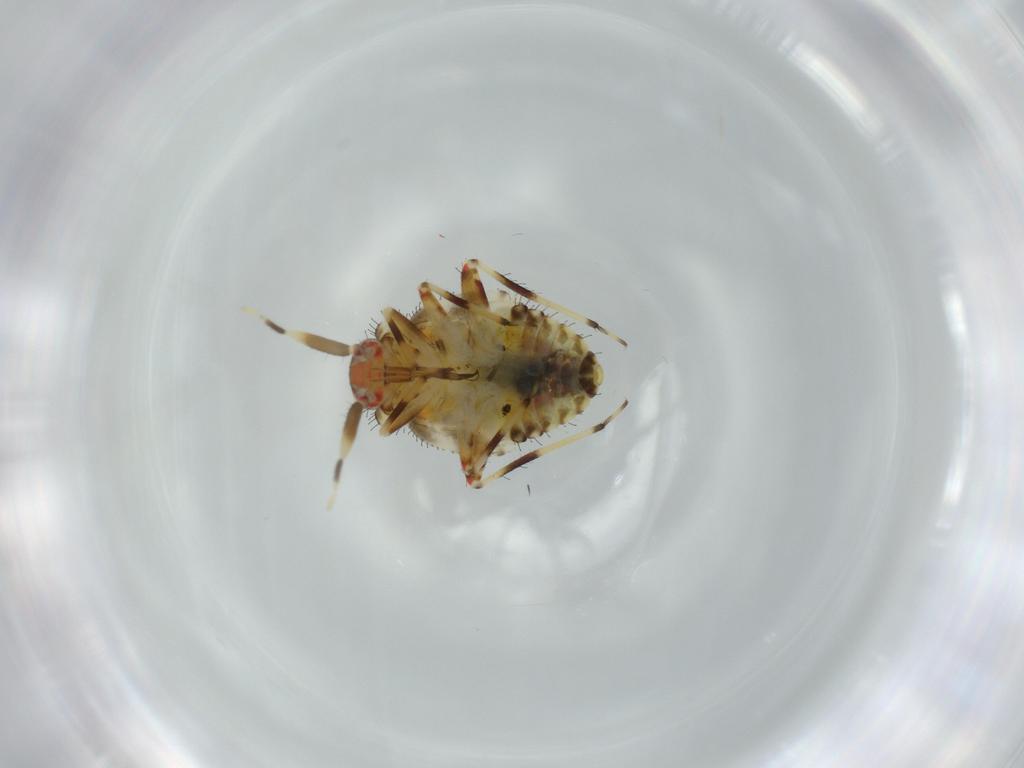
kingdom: Animalia
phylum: Arthropoda
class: Insecta
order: Hemiptera
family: Miridae
